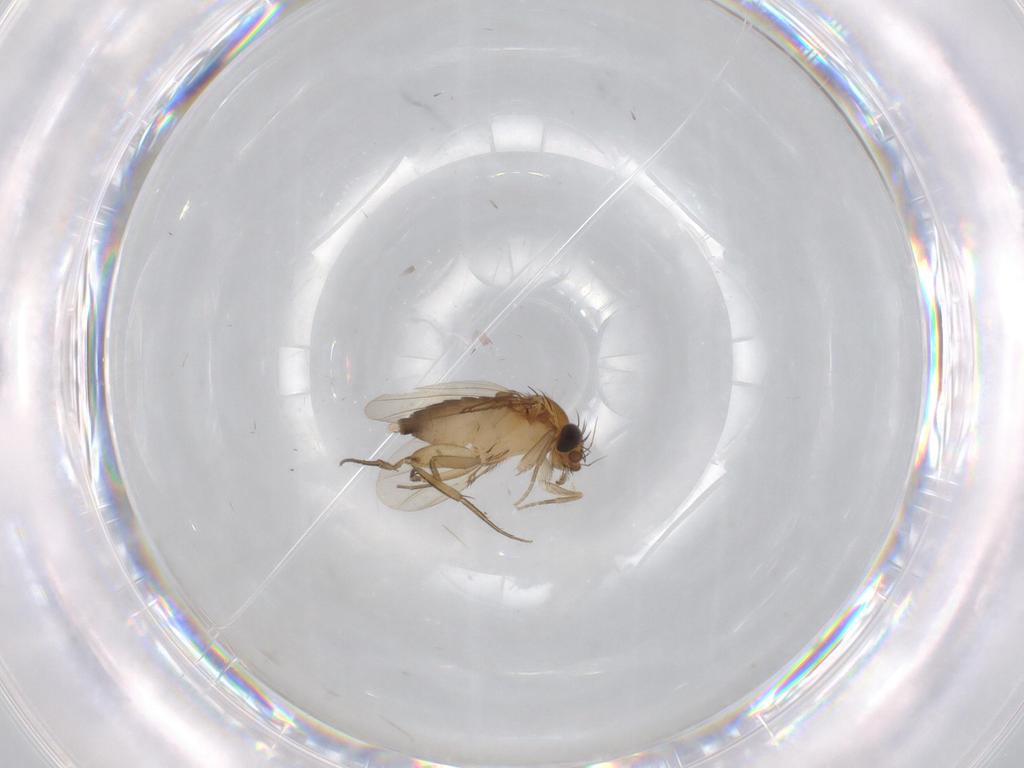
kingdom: Animalia
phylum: Arthropoda
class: Insecta
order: Diptera
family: Phoridae
